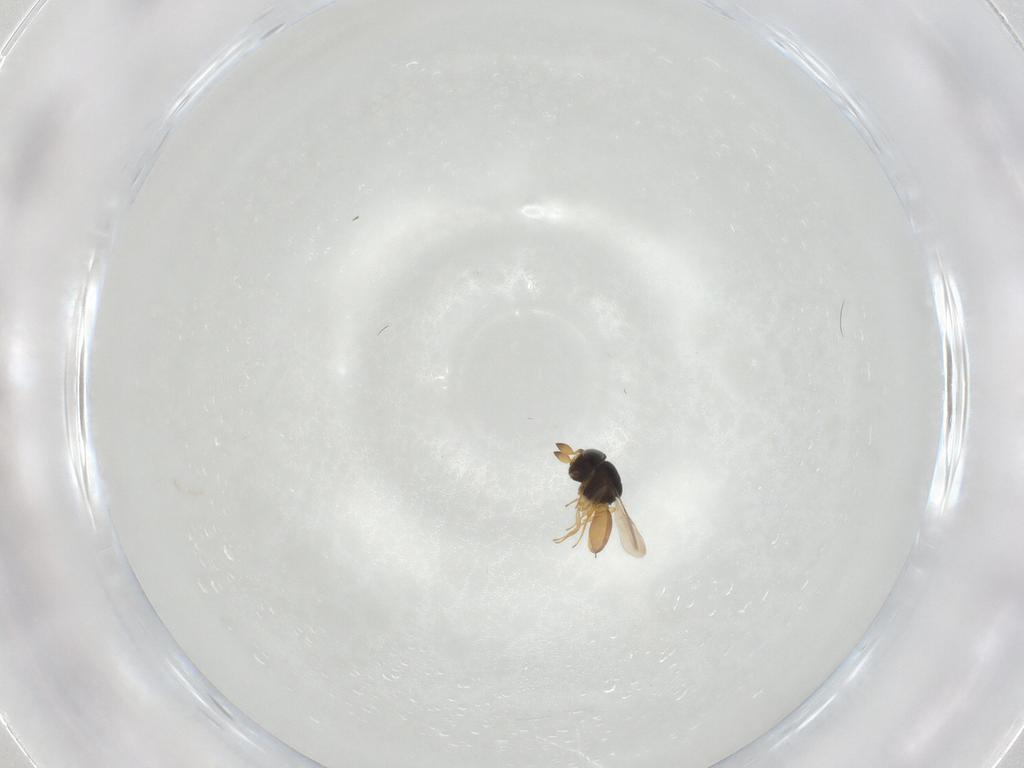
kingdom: Animalia
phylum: Arthropoda
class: Insecta
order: Hymenoptera
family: Scelionidae
